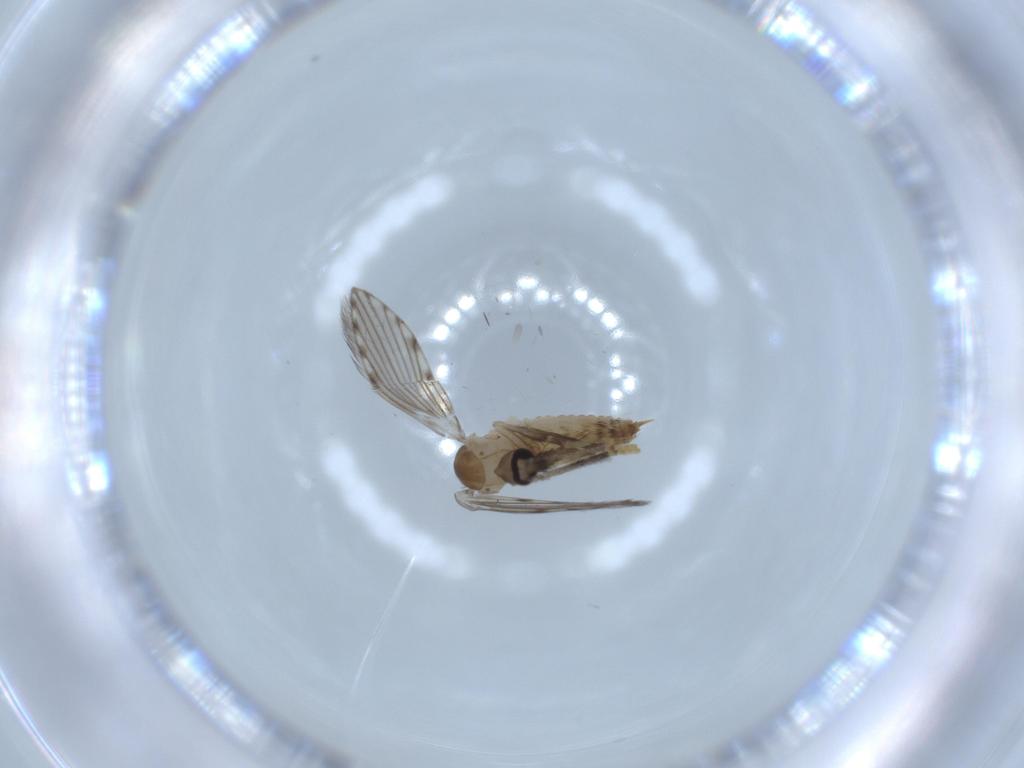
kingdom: Animalia
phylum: Arthropoda
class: Insecta
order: Diptera
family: Psychodidae
